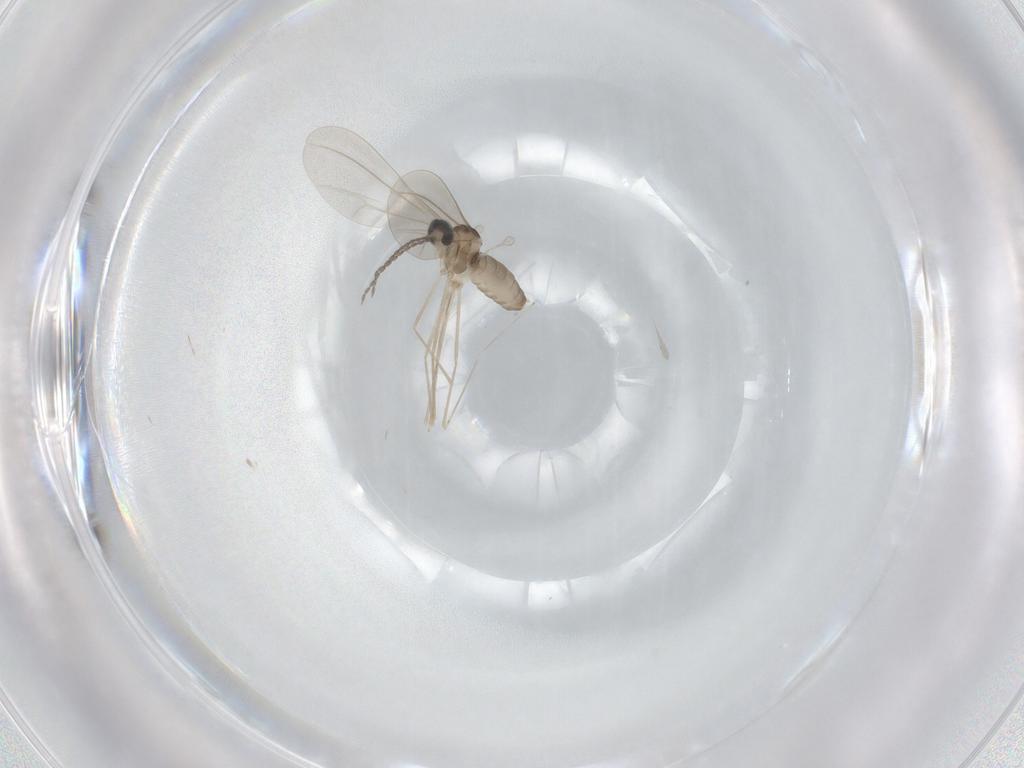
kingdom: Animalia
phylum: Arthropoda
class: Insecta
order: Diptera
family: Cecidomyiidae
